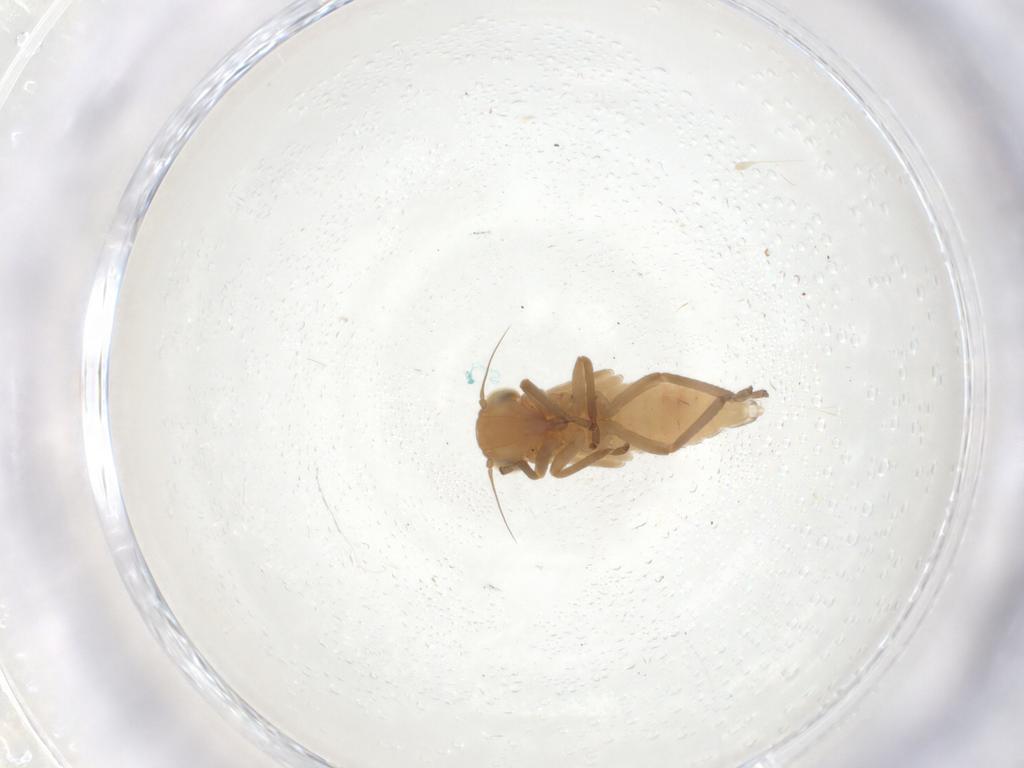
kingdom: Animalia
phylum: Arthropoda
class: Insecta
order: Hemiptera
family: Cicadellidae
